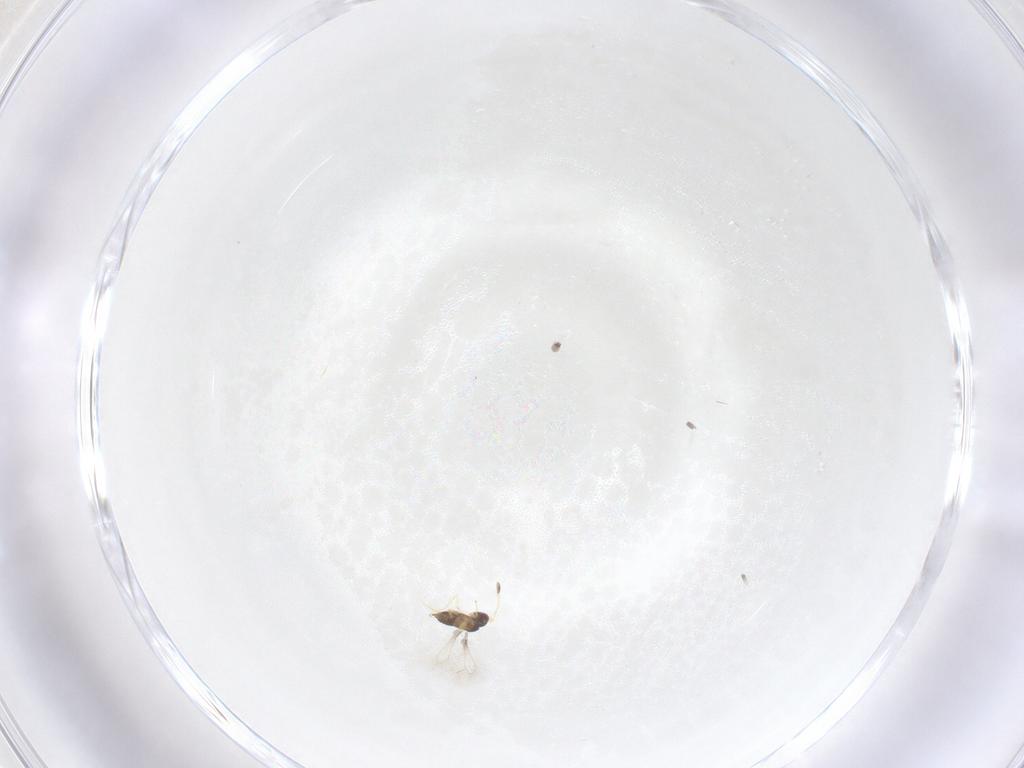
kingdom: Animalia
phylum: Arthropoda
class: Insecta
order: Hymenoptera
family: Mymaridae
